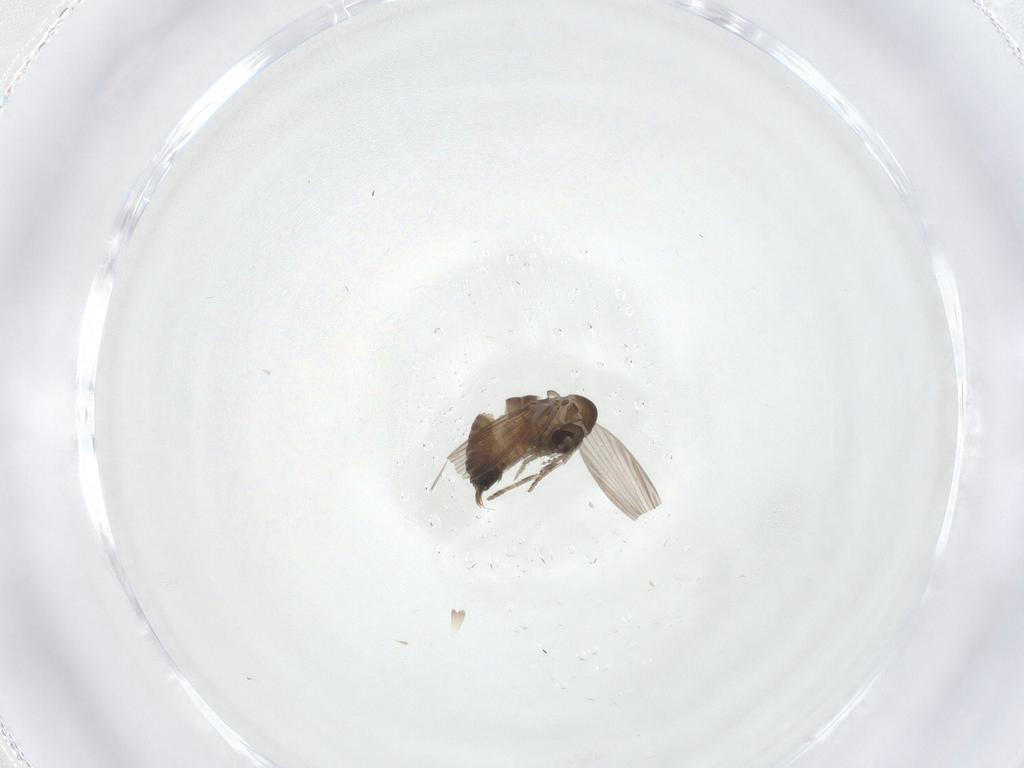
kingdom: Animalia
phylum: Arthropoda
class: Insecta
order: Diptera
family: Psychodidae
